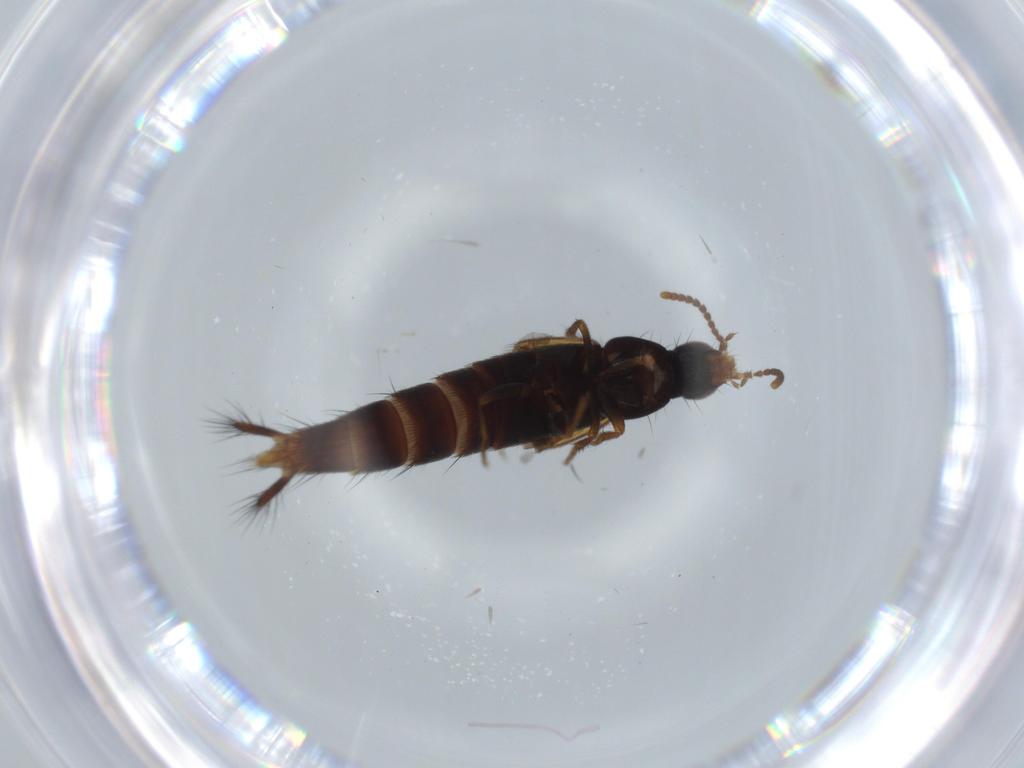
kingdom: Animalia
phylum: Arthropoda
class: Insecta
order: Coleoptera
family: Staphylinidae
